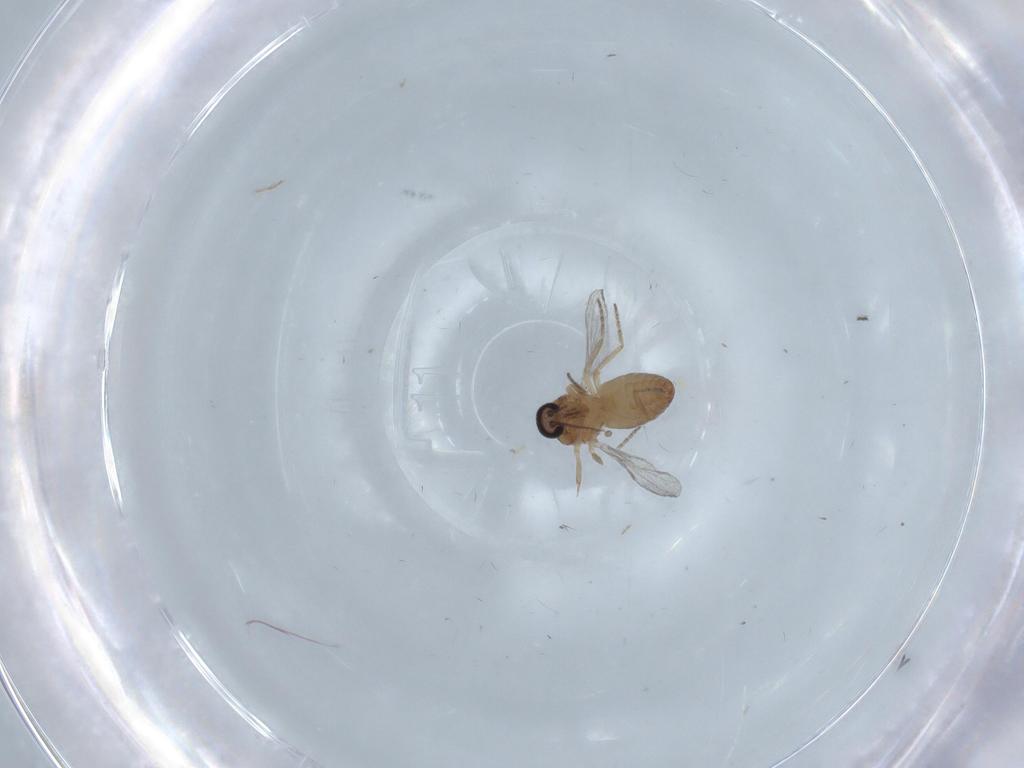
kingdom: Animalia
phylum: Arthropoda
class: Insecta
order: Diptera
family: Ceratopogonidae
